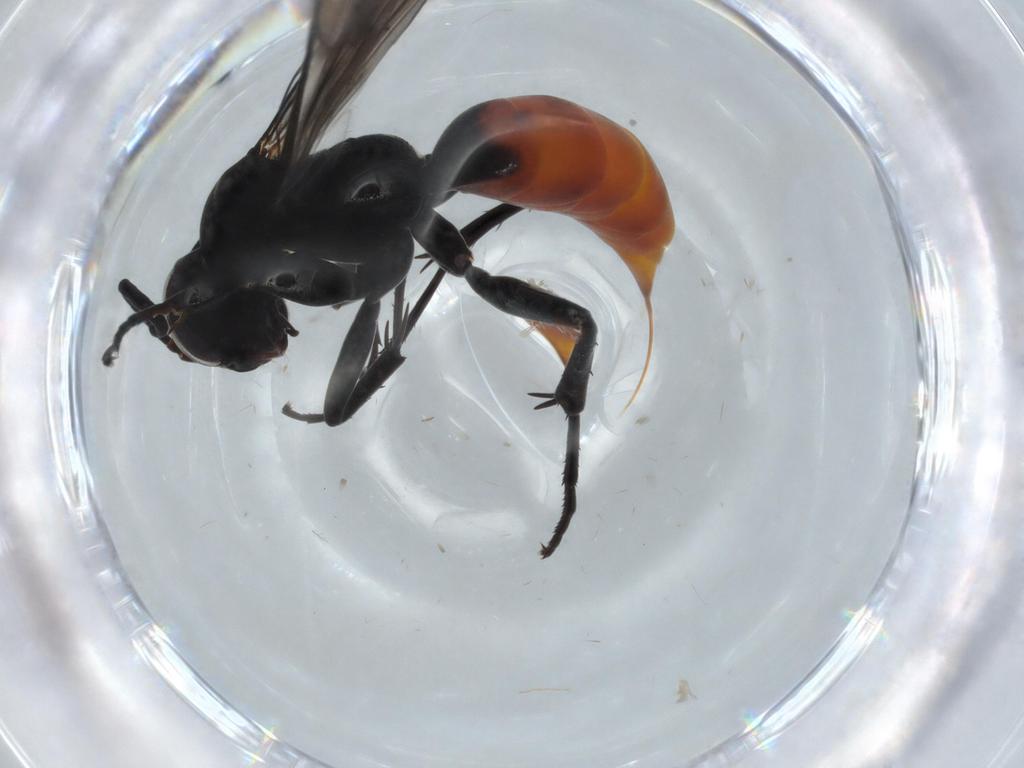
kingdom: Animalia
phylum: Arthropoda
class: Insecta
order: Hymenoptera
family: Pompilidae
